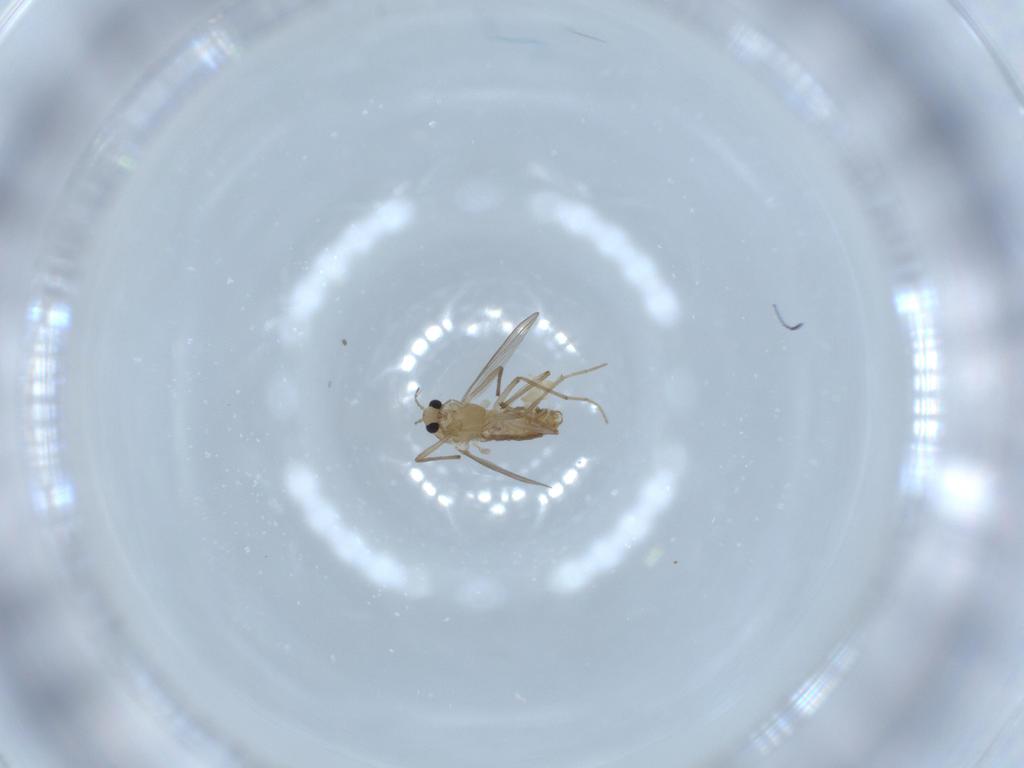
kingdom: Animalia
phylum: Arthropoda
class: Insecta
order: Diptera
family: Chironomidae
